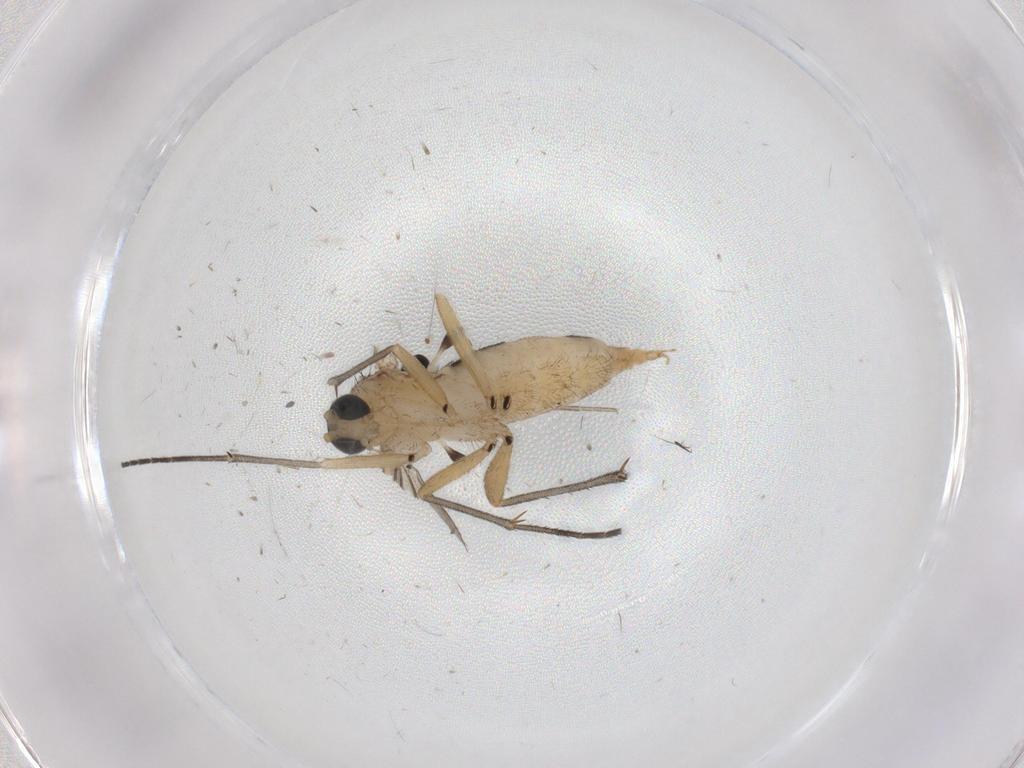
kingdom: Animalia
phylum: Arthropoda
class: Insecta
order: Diptera
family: Sciaridae
